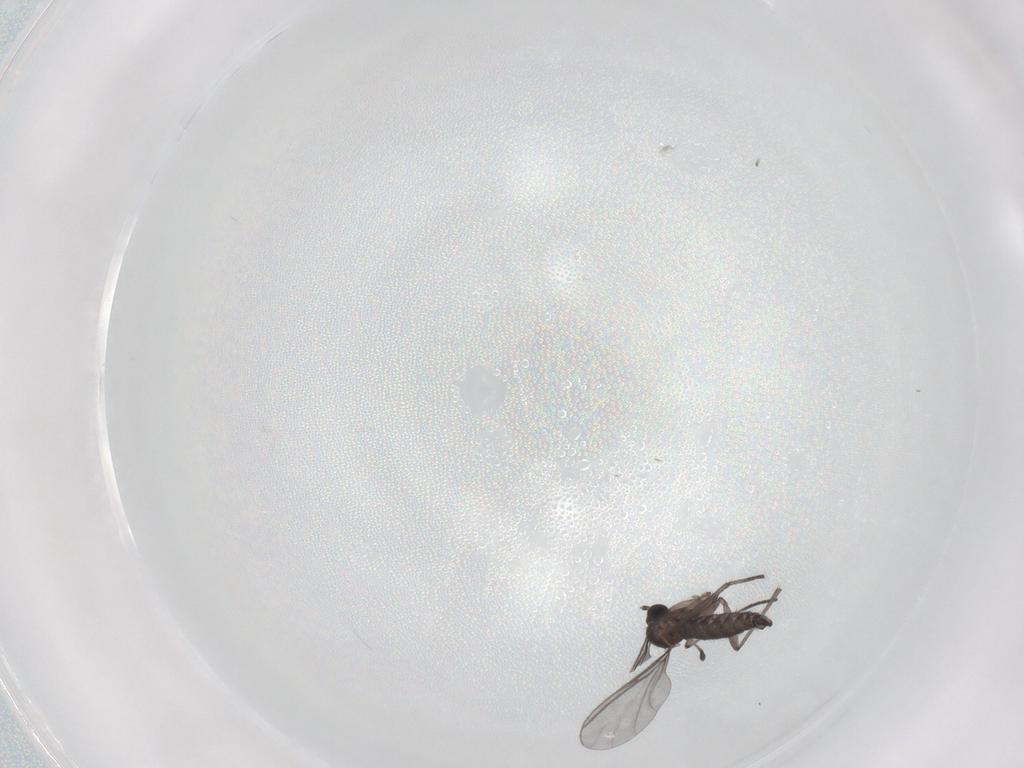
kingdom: Animalia
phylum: Arthropoda
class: Insecta
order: Diptera
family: Chironomidae
